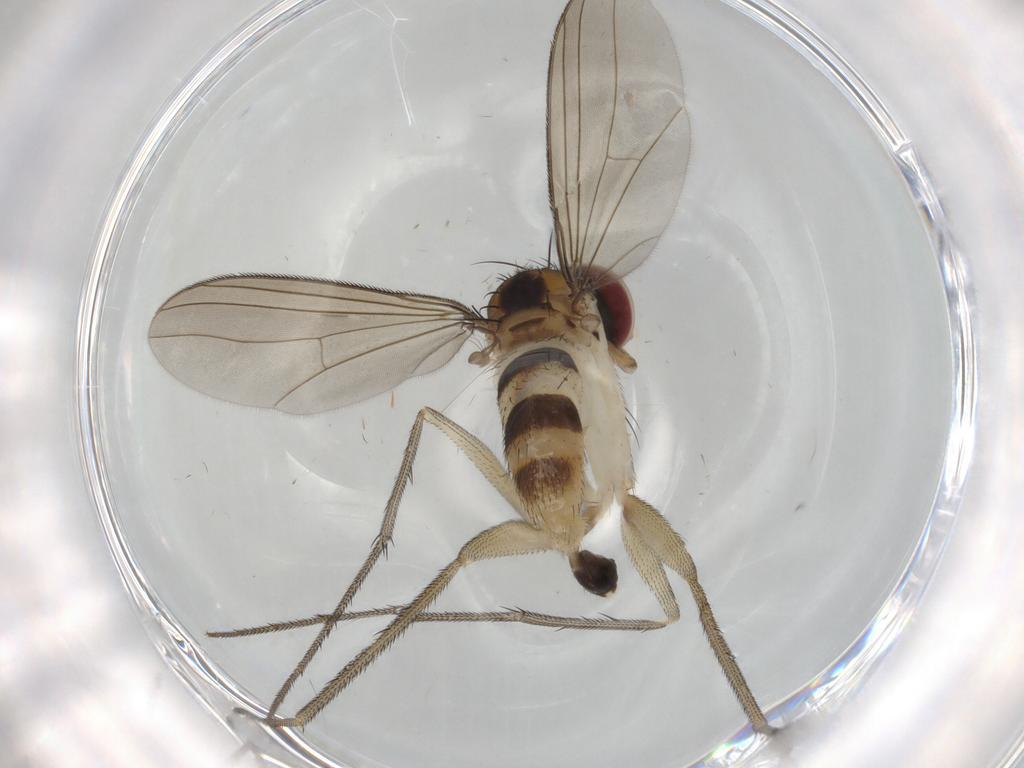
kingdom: Animalia
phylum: Arthropoda
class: Insecta
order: Diptera
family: Dolichopodidae
